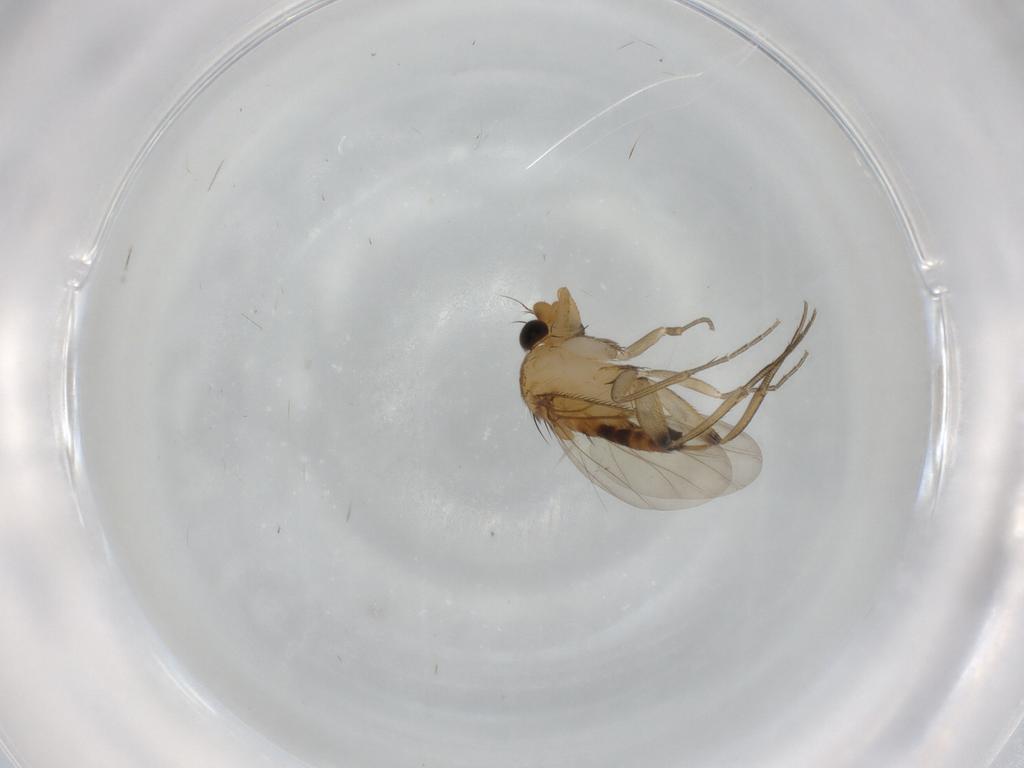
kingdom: Animalia
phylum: Arthropoda
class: Insecta
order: Diptera
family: Phoridae
